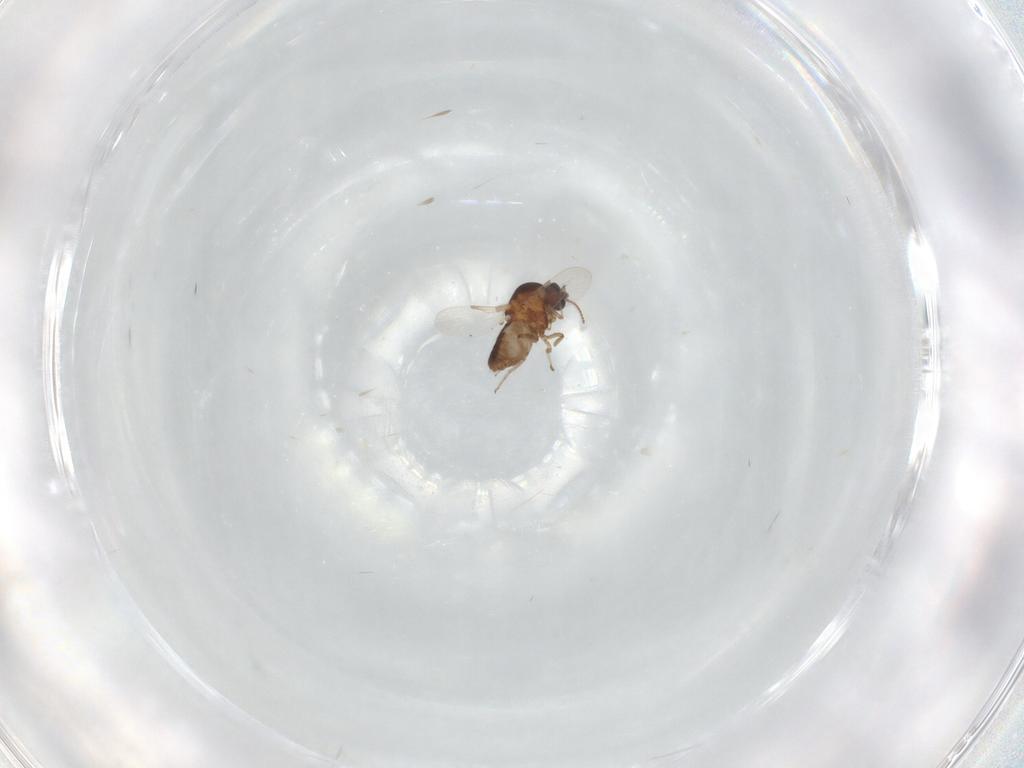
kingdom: Animalia
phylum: Arthropoda
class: Insecta
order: Diptera
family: Ceratopogonidae
